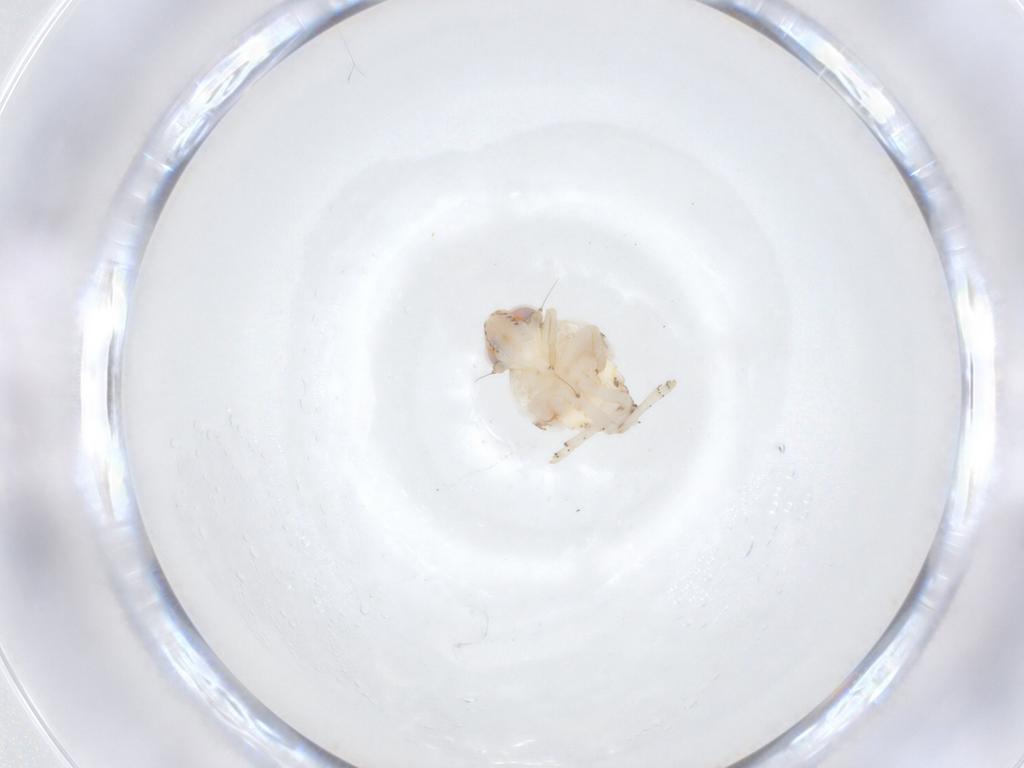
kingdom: Animalia
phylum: Arthropoda
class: Insecta
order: Hemiptera
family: Nogodinidae
